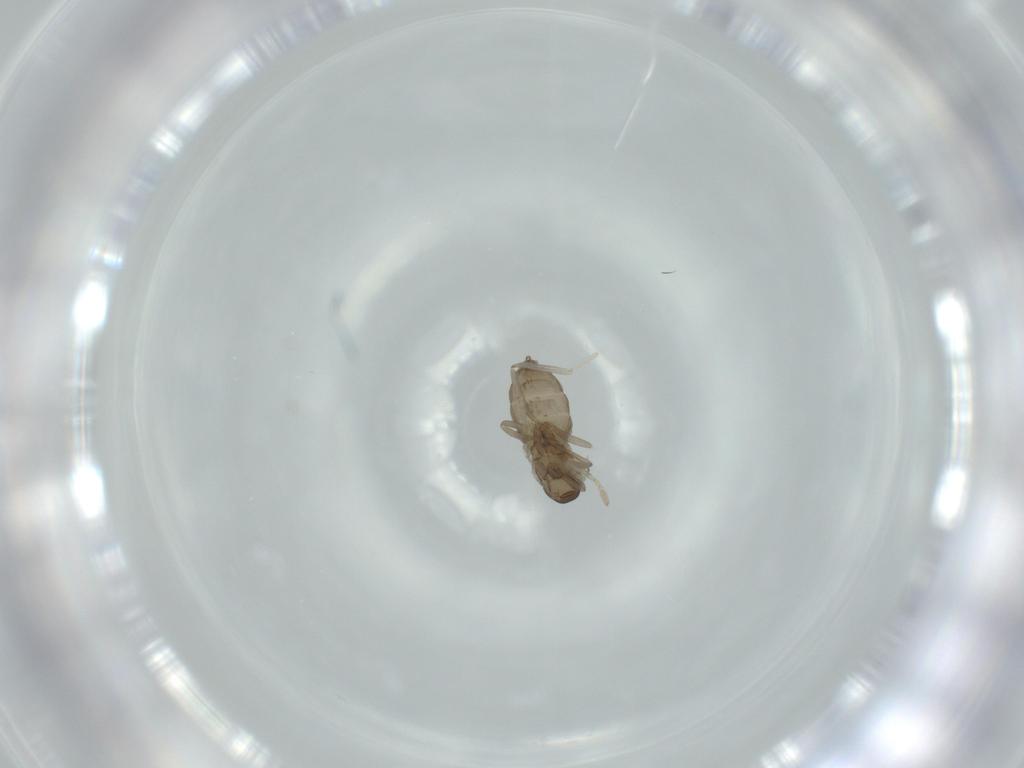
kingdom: Animalia
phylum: Arthropoda
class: Insecta
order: Diptera
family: Cecidomyiidae
